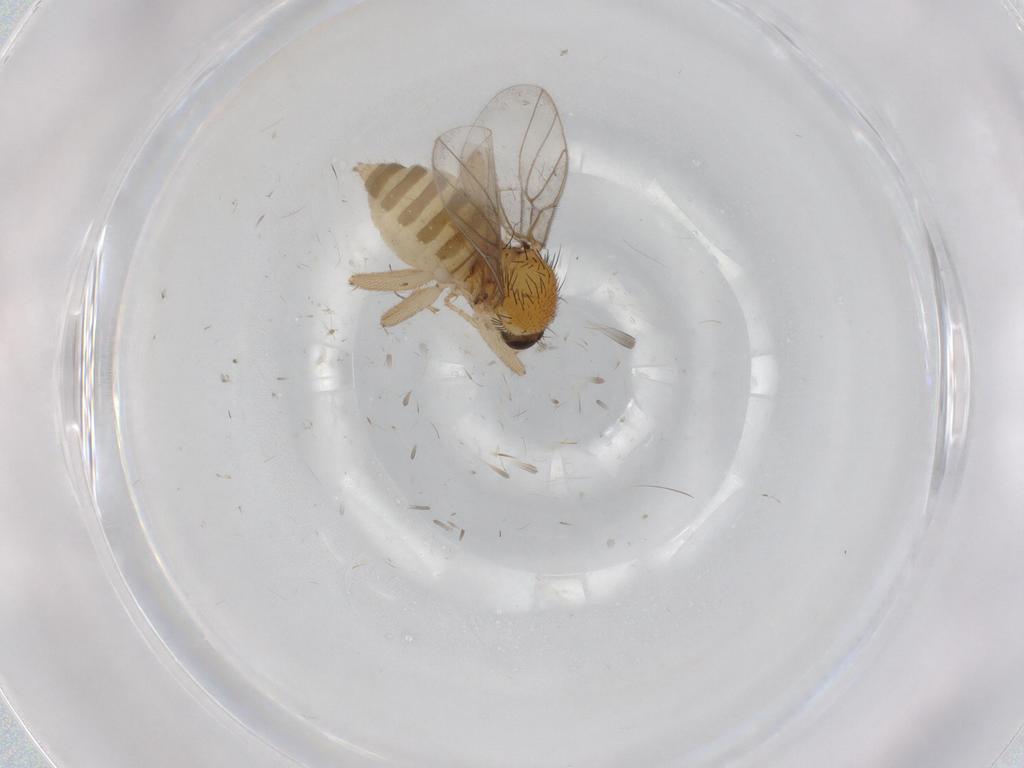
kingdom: Animalia
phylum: Arthropoda
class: Insecta
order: Diptera
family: Hybotidae
